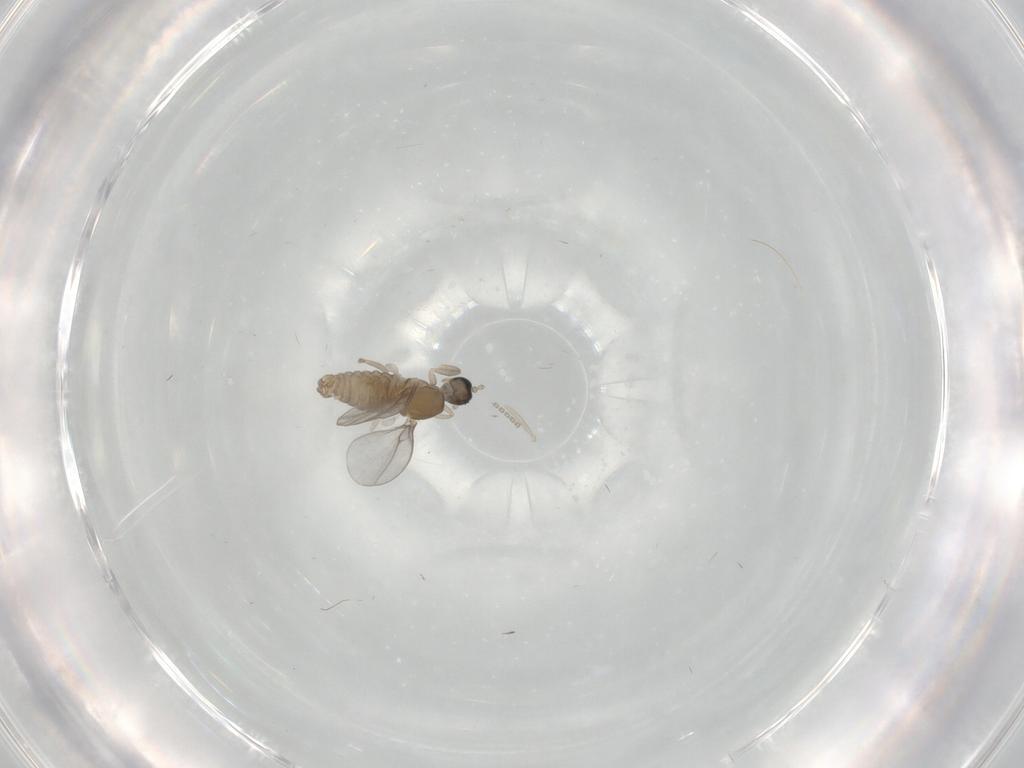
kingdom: Animalia
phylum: Arthropoda
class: Insecta
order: Diptera
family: Cecidomyiidae
